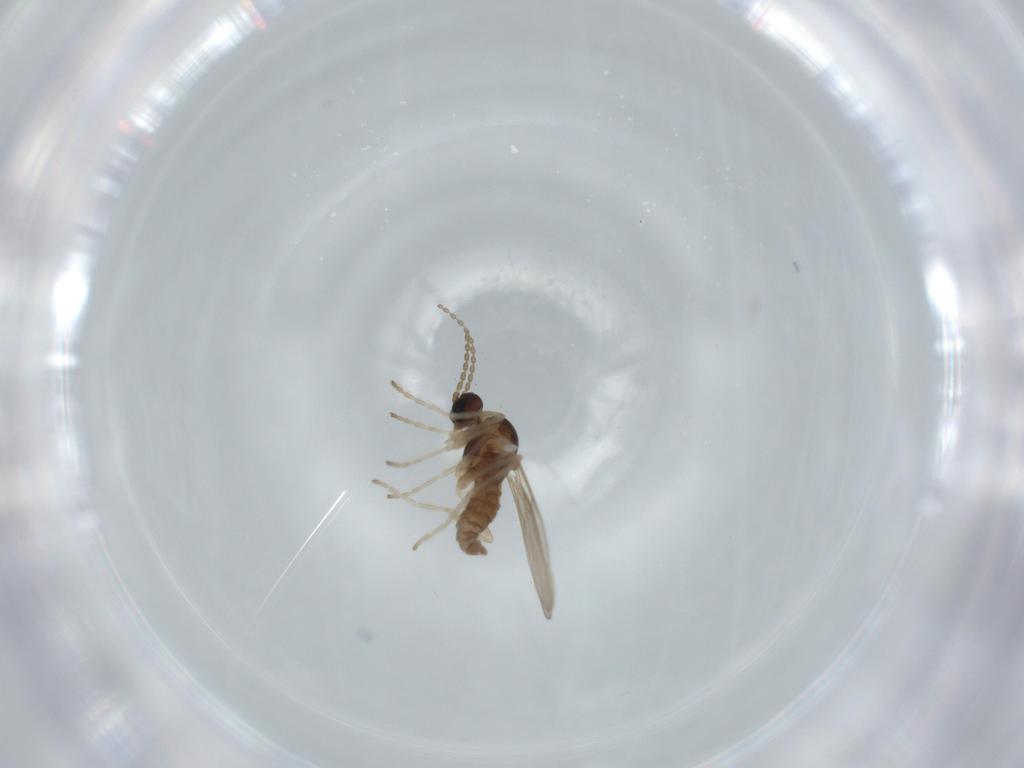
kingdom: Animalia
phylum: Arthropoda
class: Insecta
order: Diptera
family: Cecidomyiidae
